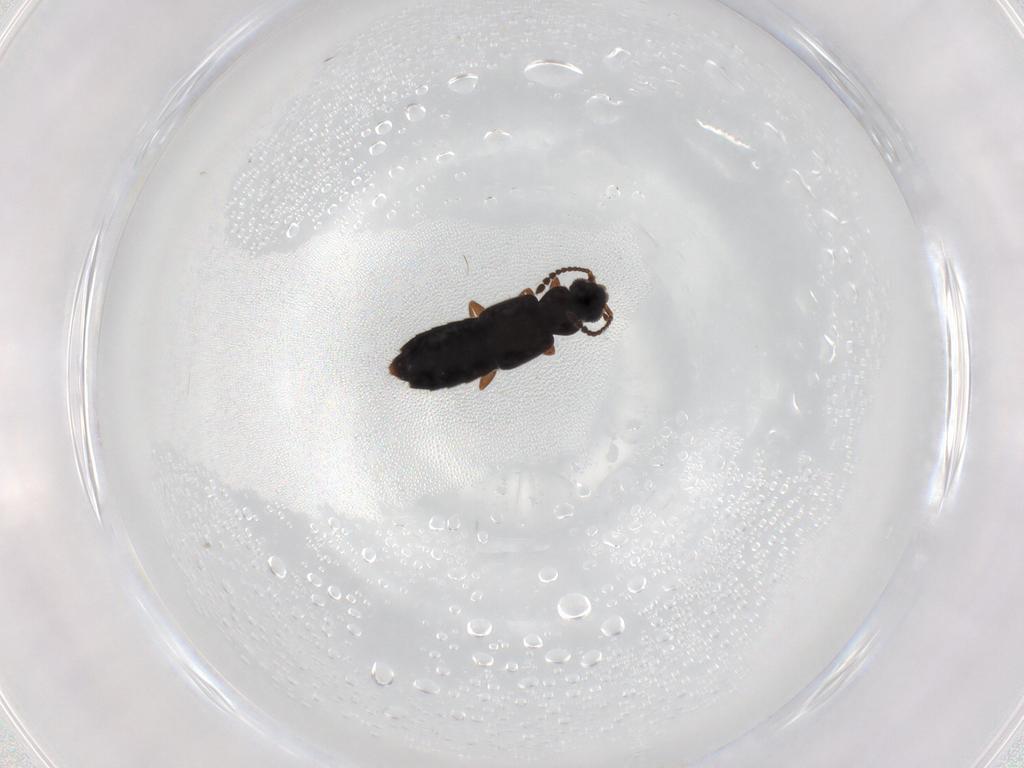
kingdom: Animalia
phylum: Arthropoda
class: Insecta
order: Coleoptera
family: Staphylinidae
